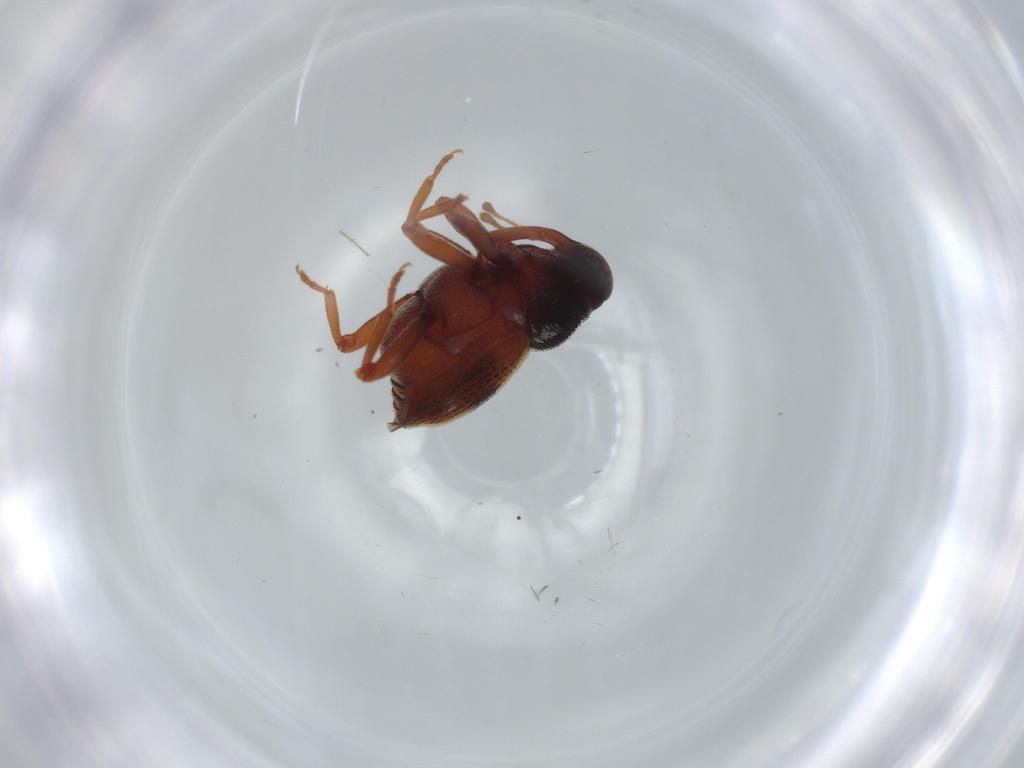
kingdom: Animalia
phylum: Arthropoda
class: Insecta
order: Coleoptera
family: Curculionidae
